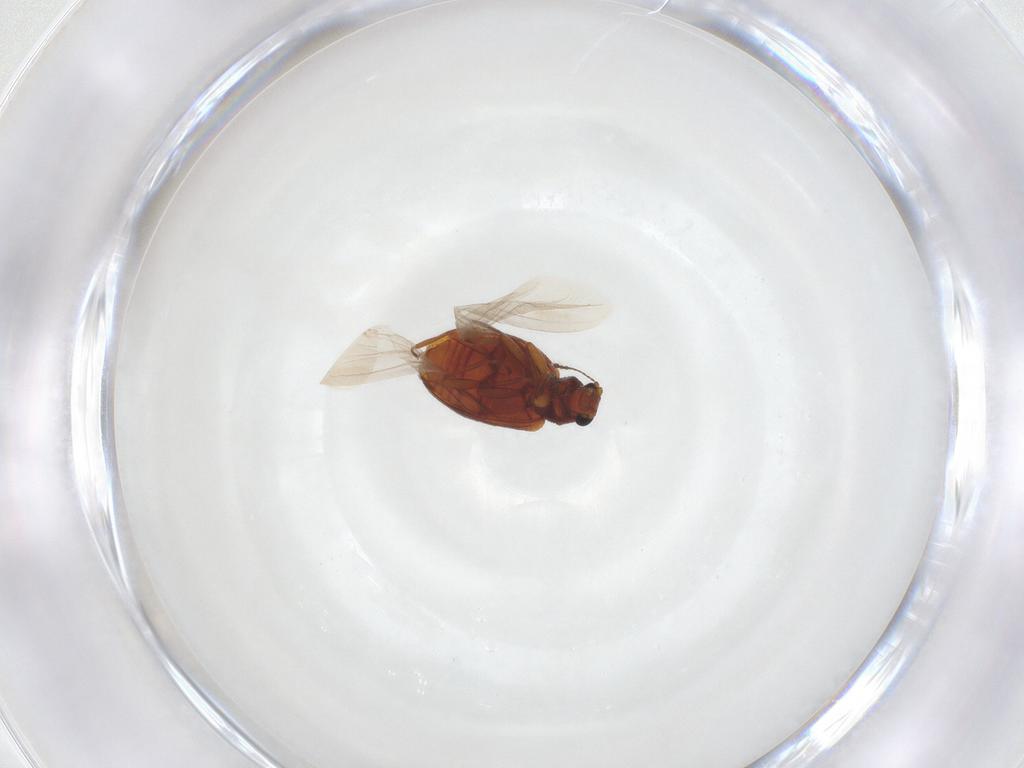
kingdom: Animalia
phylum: Arthropoda
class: Insecta
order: Coleoptera
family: Latridiidae
